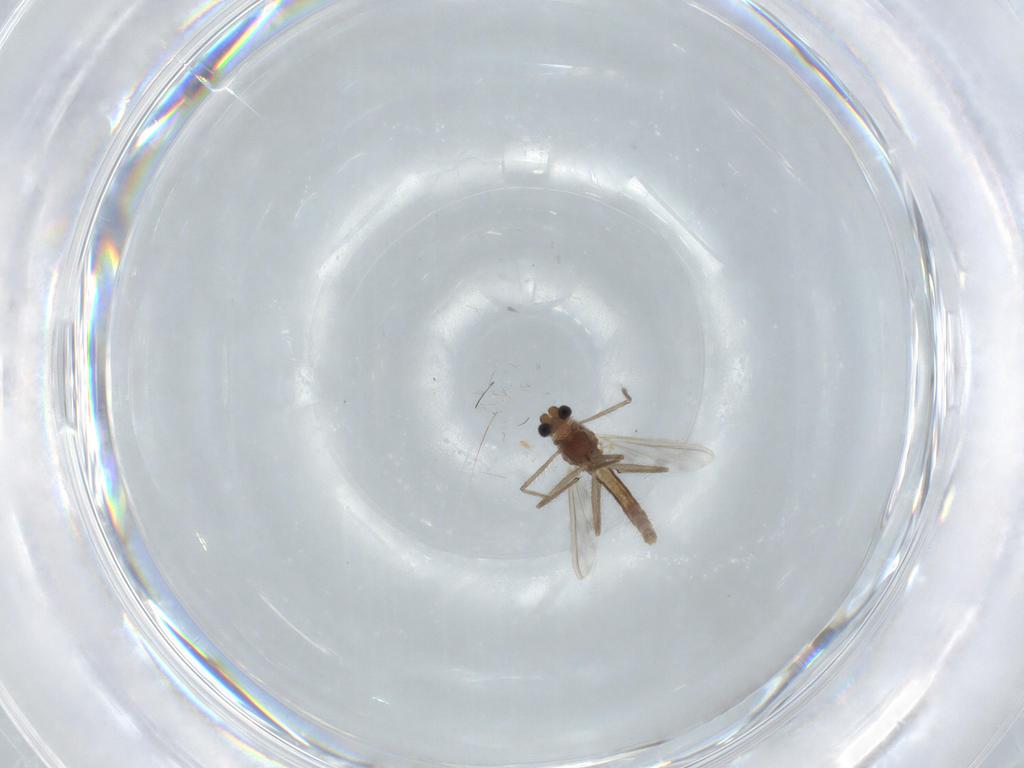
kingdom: Animalia
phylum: Arthropoda
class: Insecta
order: Diptera
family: Chironomidae
